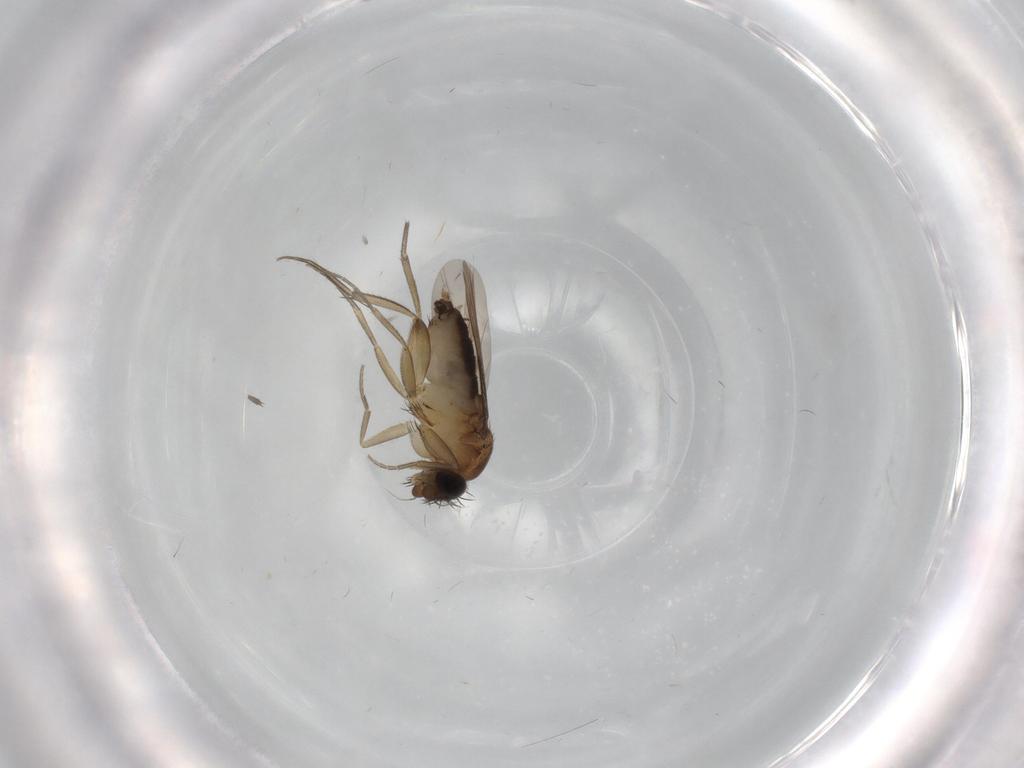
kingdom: Animalia
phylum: Arthropoda
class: Insecta
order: Diptera
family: Phoridae
